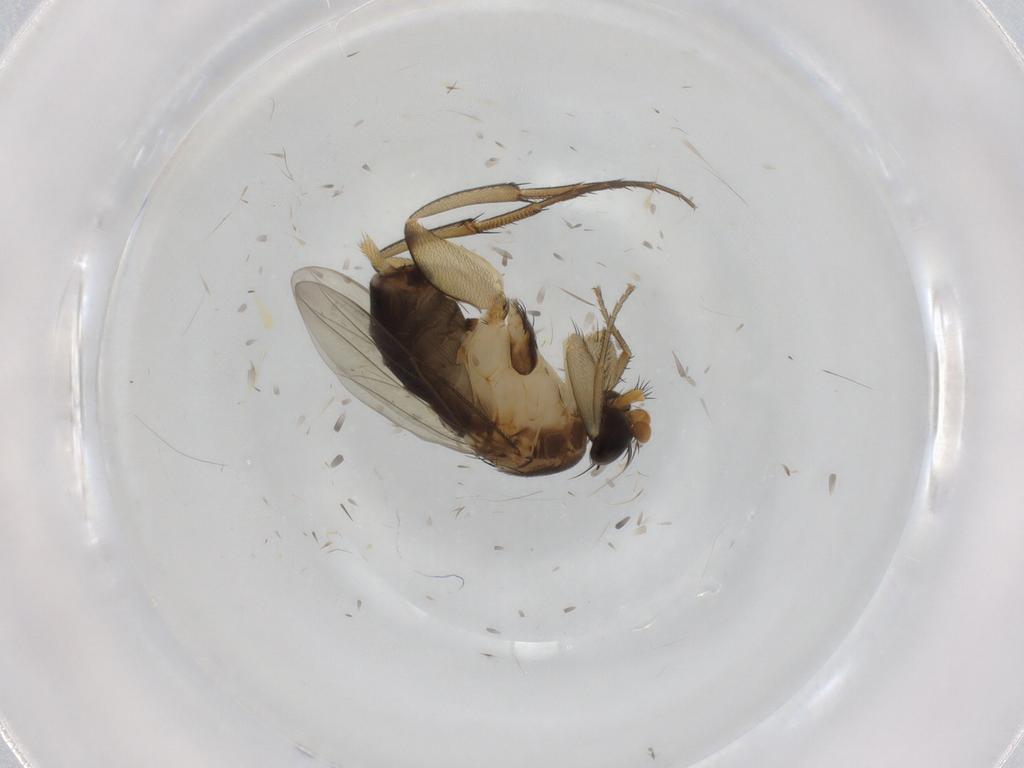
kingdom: Animalia
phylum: Arthropoda
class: Insecta
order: Diptera
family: Phoridae
